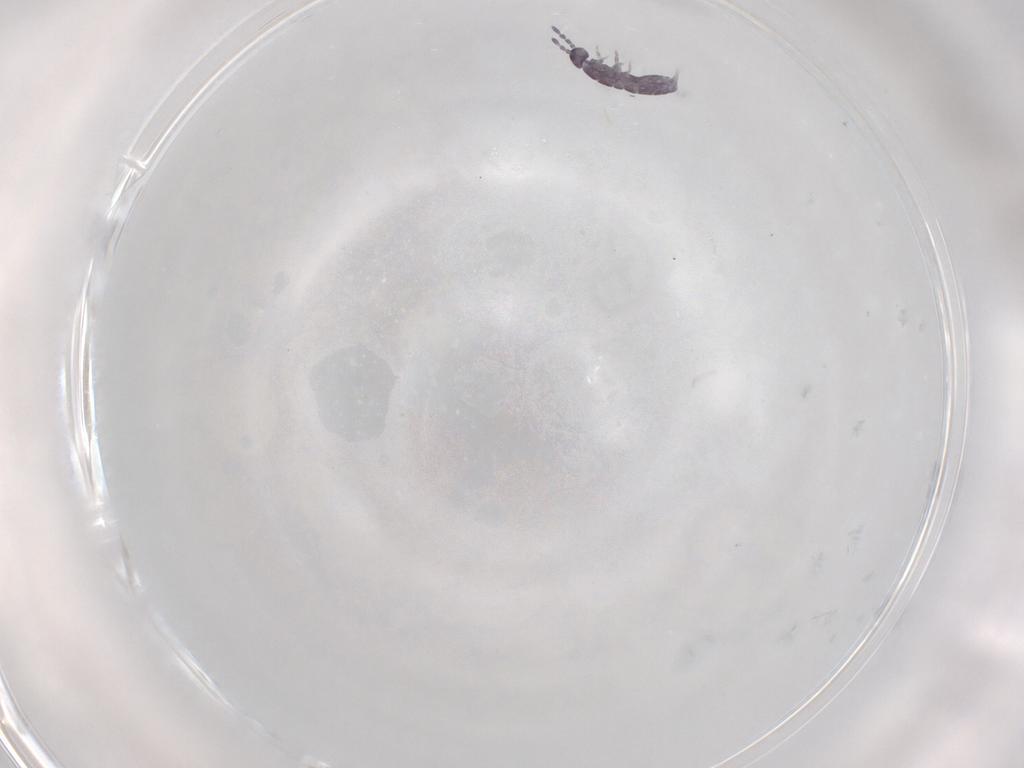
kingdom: Animalia
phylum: Arthropoda
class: Collembola
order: Entomobryomorpha
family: Isotomidae
